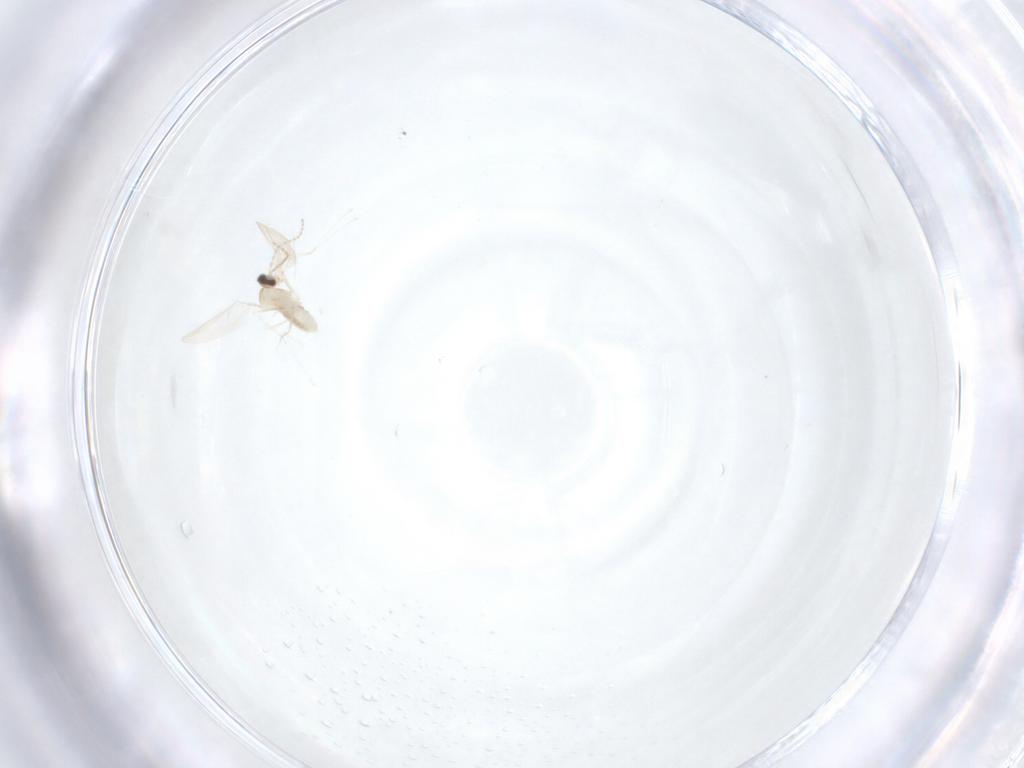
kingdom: Animalia
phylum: Arthropoda
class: Insecta
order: Diptera
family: Cecidomyiidae
